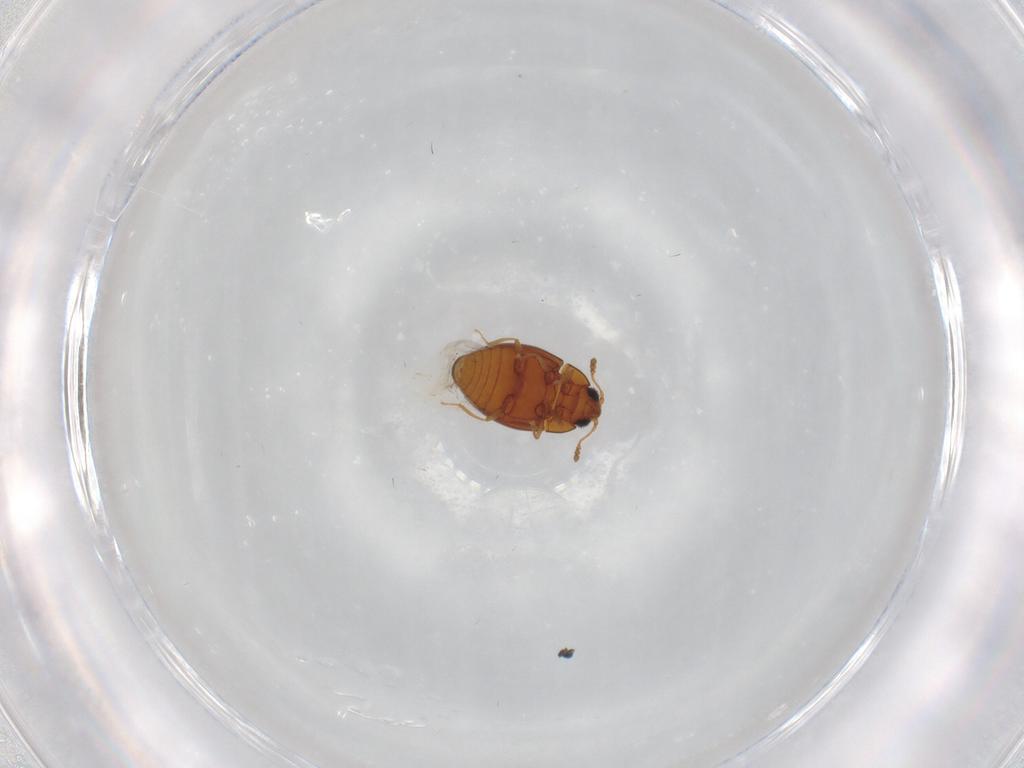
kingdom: Animalia
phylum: Arthropoda
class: Insecta
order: Coleoptera
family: Cryptophagidae
